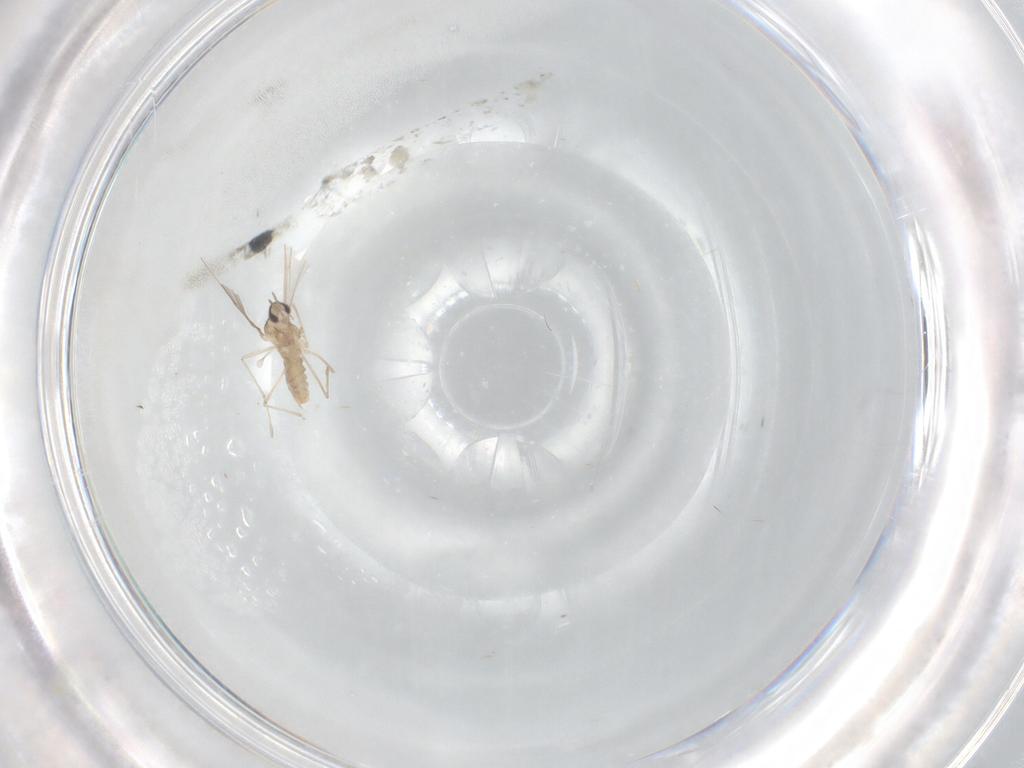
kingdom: Animalia
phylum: Arthropoda
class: Insecta
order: Diptera
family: Cecidomyiidae
